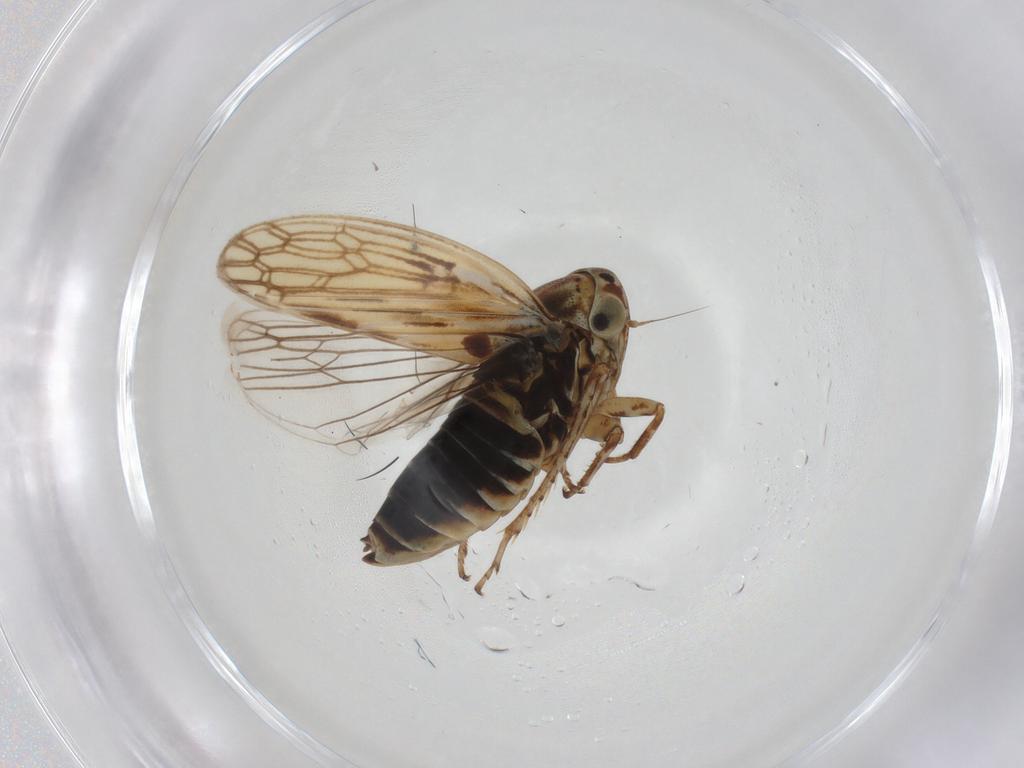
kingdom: Animalia
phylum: Arthropoda
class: Insecta
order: Hemiptera
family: Cicadellidae
